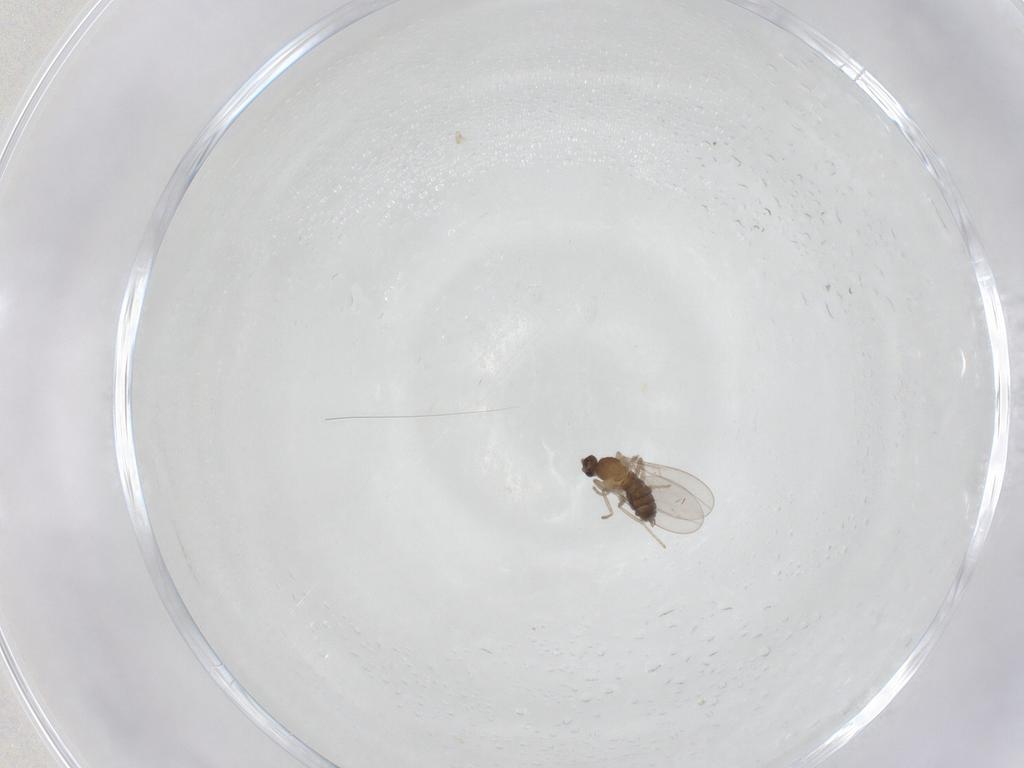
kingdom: Animalia
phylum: Arthropoda
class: Insecta
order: Diptera
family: Cecidomyiidae
